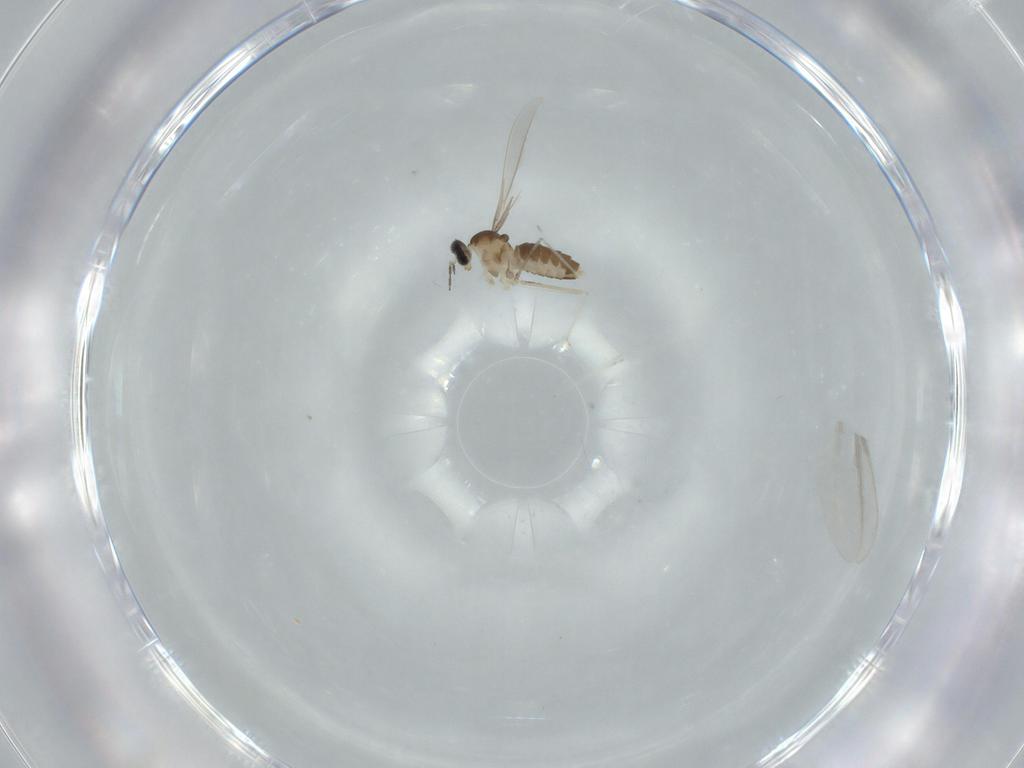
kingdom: Animalia
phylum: Arthropoda
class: Insecta
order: Diptera
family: Cecidomyiidae
